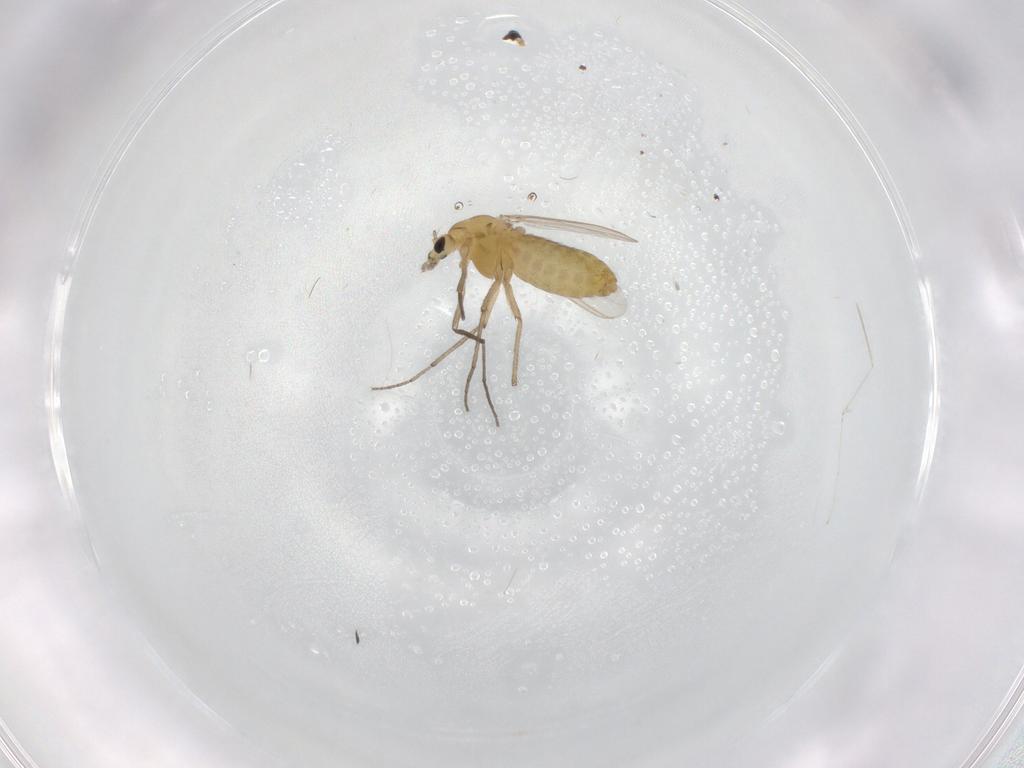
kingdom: Animalia
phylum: Arthropoda
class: Insecta
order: Diptera
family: Chironomidae
